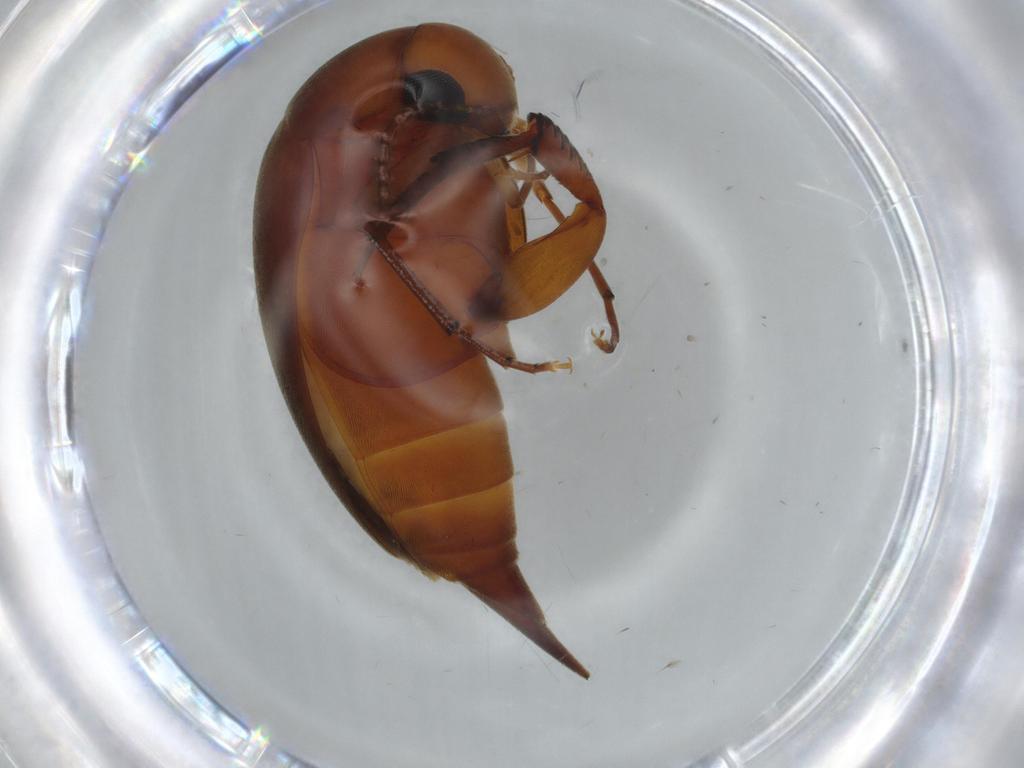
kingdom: Animalia
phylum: Arthropoda
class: Insecta
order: Coleoptera
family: Mordellidae
